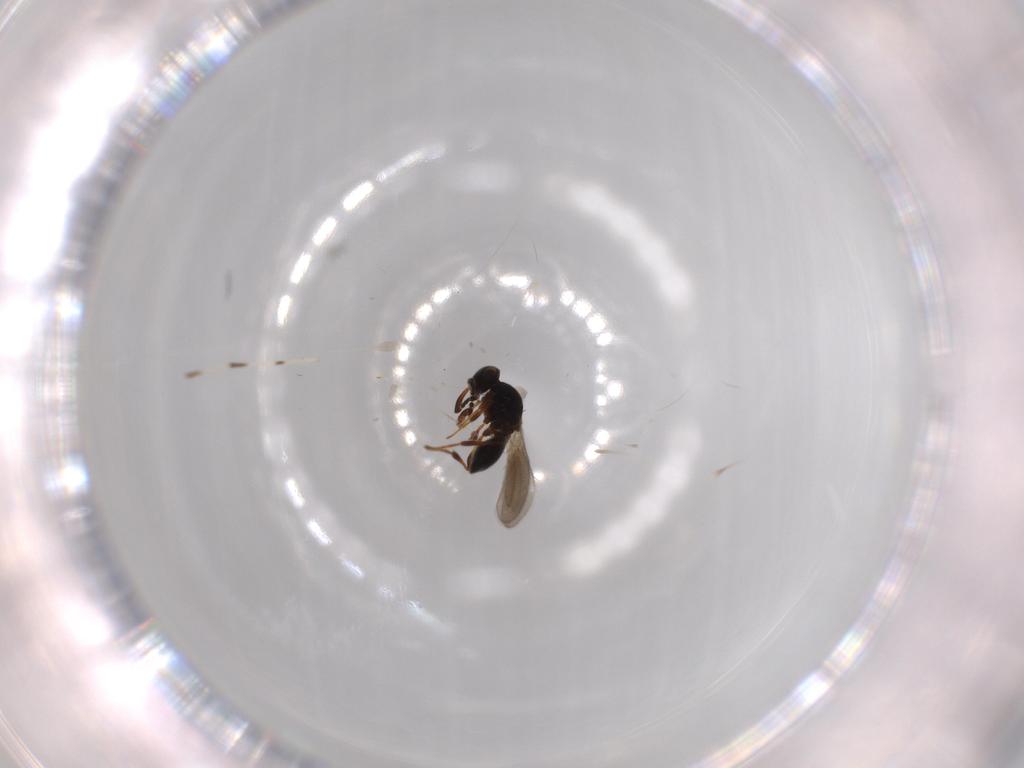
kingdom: Animalia
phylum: Arthropoda
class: Insecta
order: Hymenoptera
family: Platygastridae
